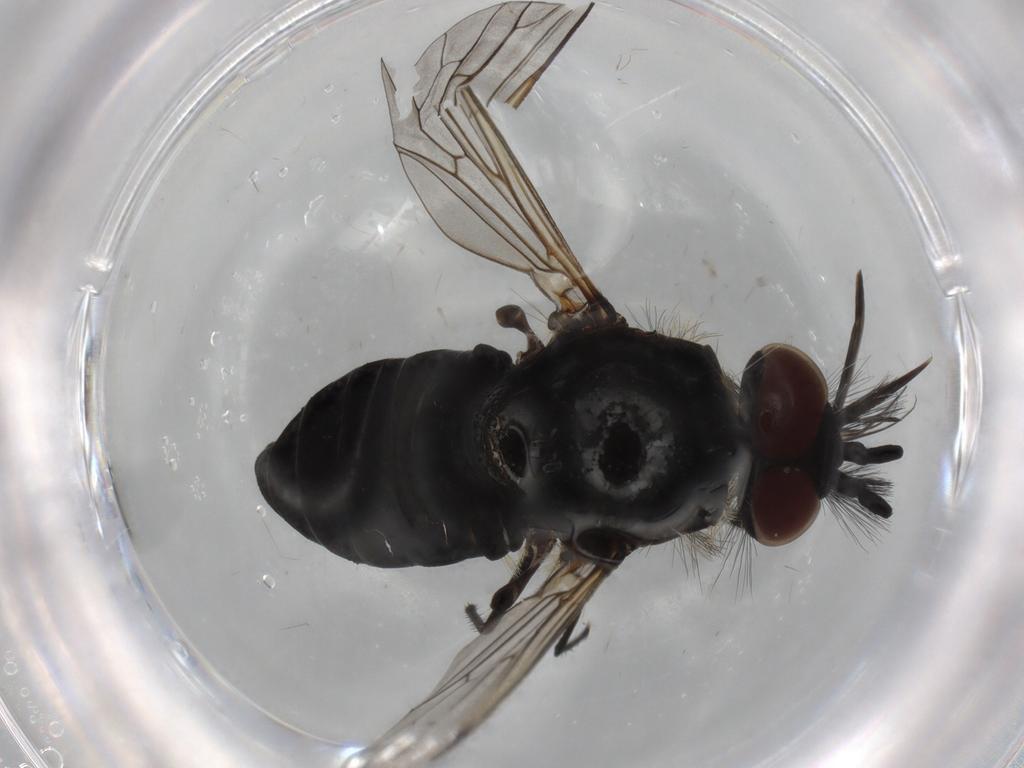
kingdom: Animalia
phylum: Arthropoda
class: Insecta
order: Diptera
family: Bombyliidae
